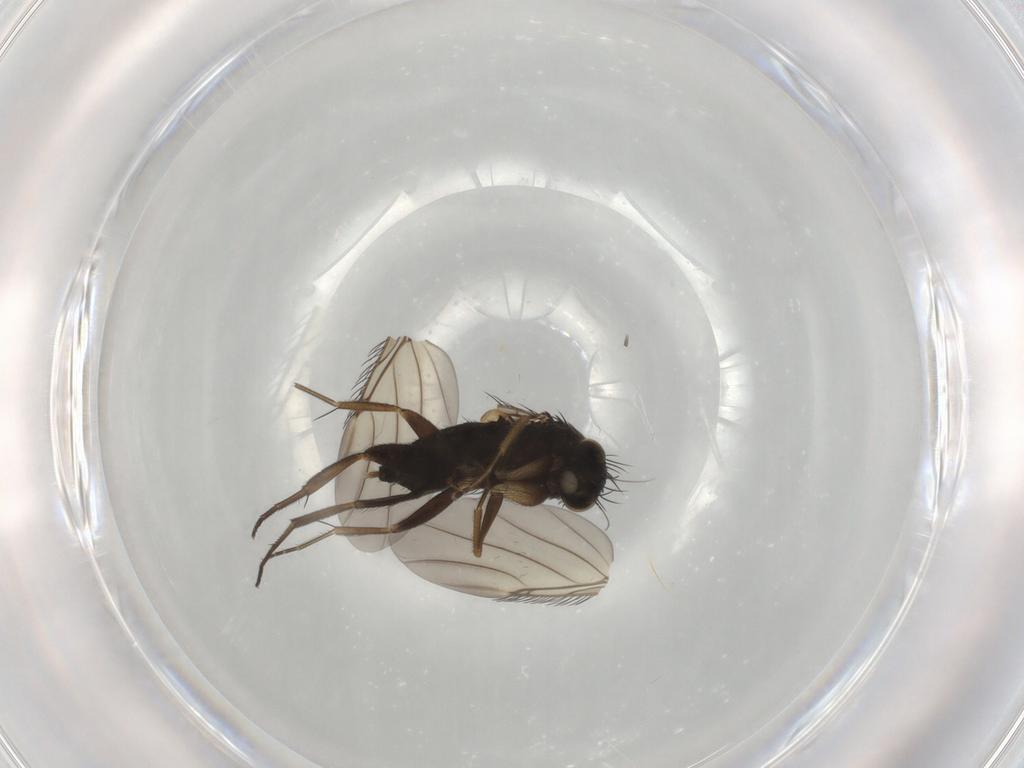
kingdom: Animalia
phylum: Arthropoda
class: Insecta
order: Diptera
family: Phoridae
